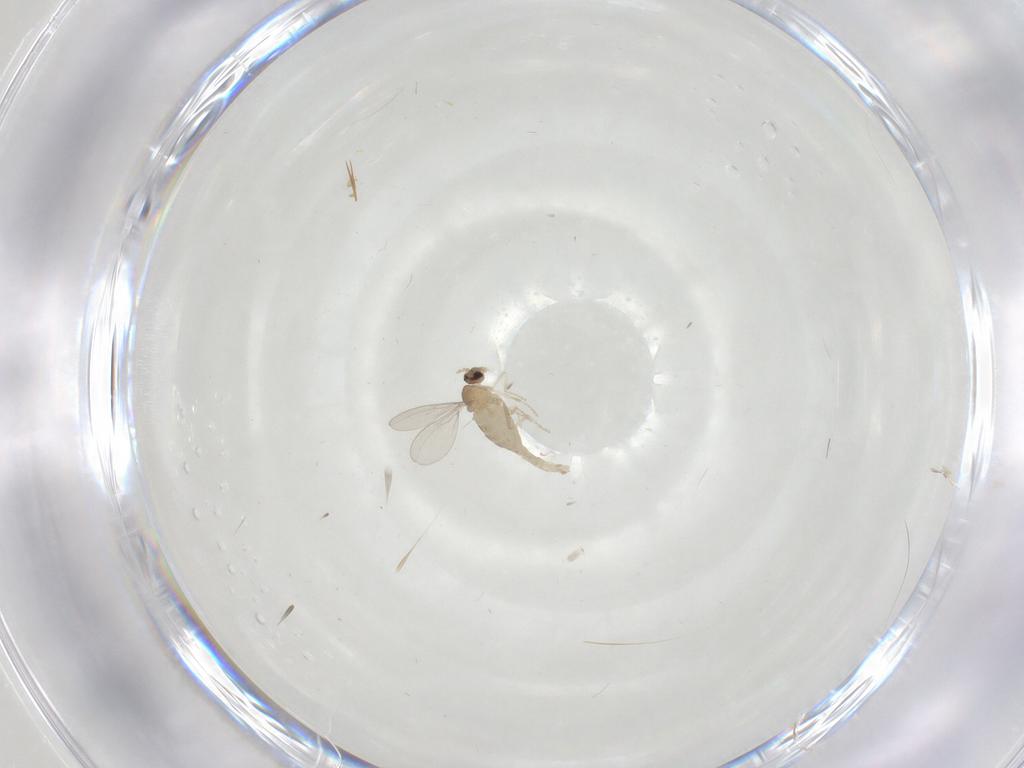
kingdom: Animalia
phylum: Arthropoda
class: Insecta
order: Diptera
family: Cecidomyiidae
